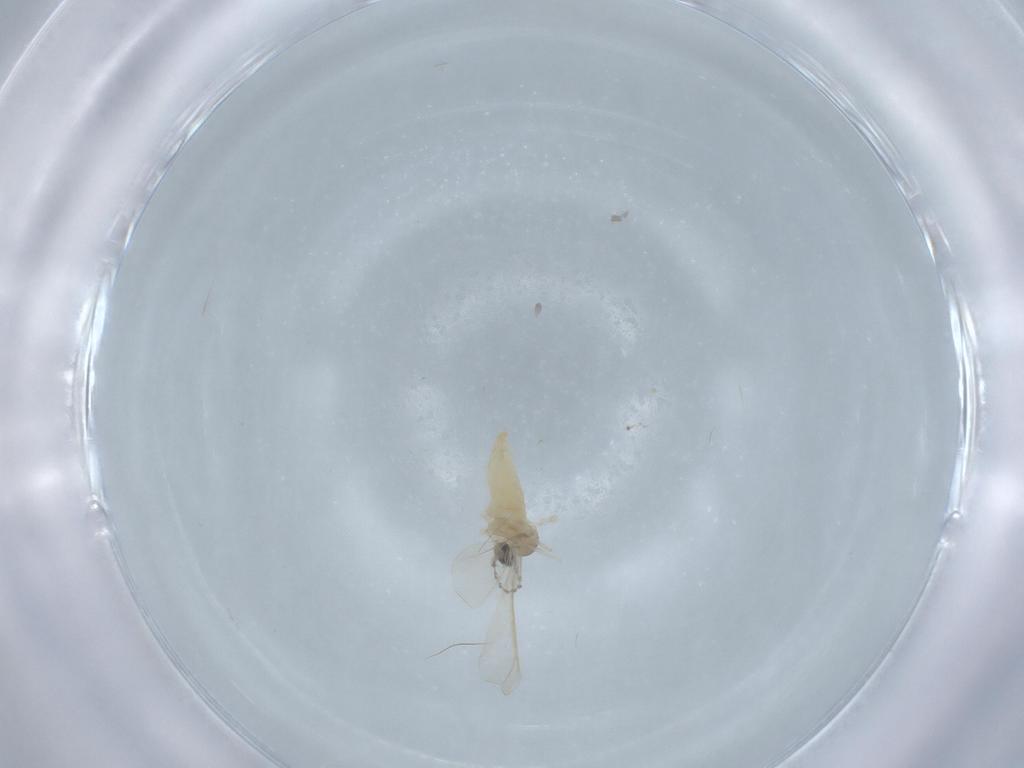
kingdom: Animalia
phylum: Arthropoda
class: Insecta
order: Diptera
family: Cecidomyiidae
